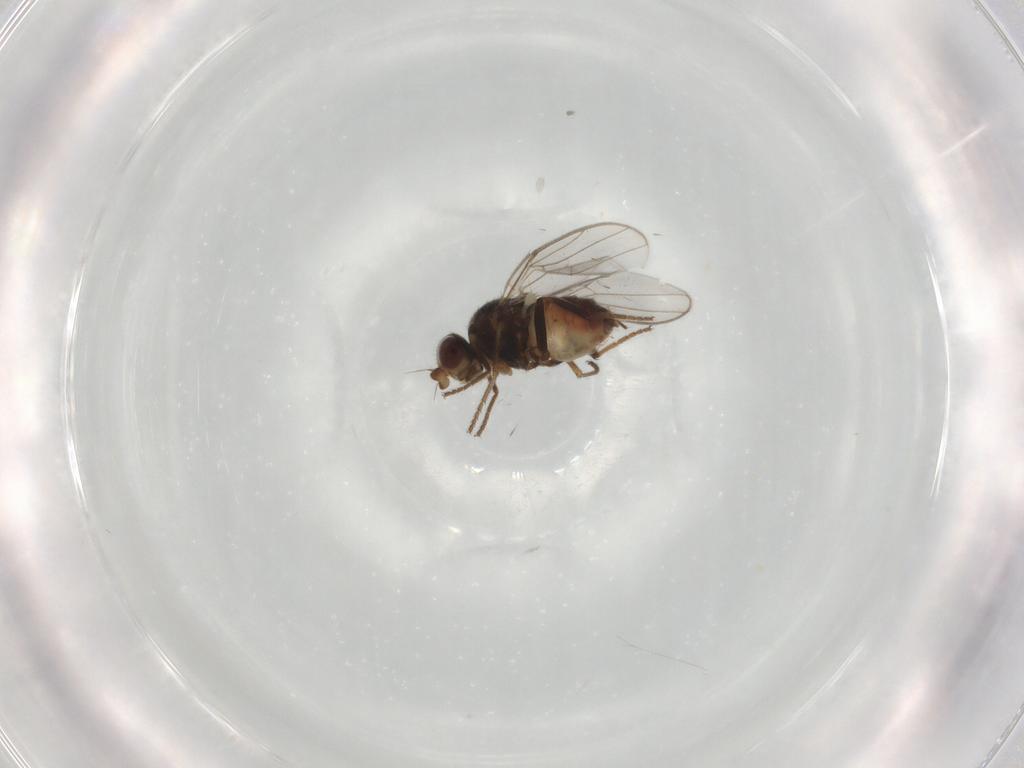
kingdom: Animalia
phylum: Arthropoda
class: Insecta
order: Diptera
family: Chloropidae
